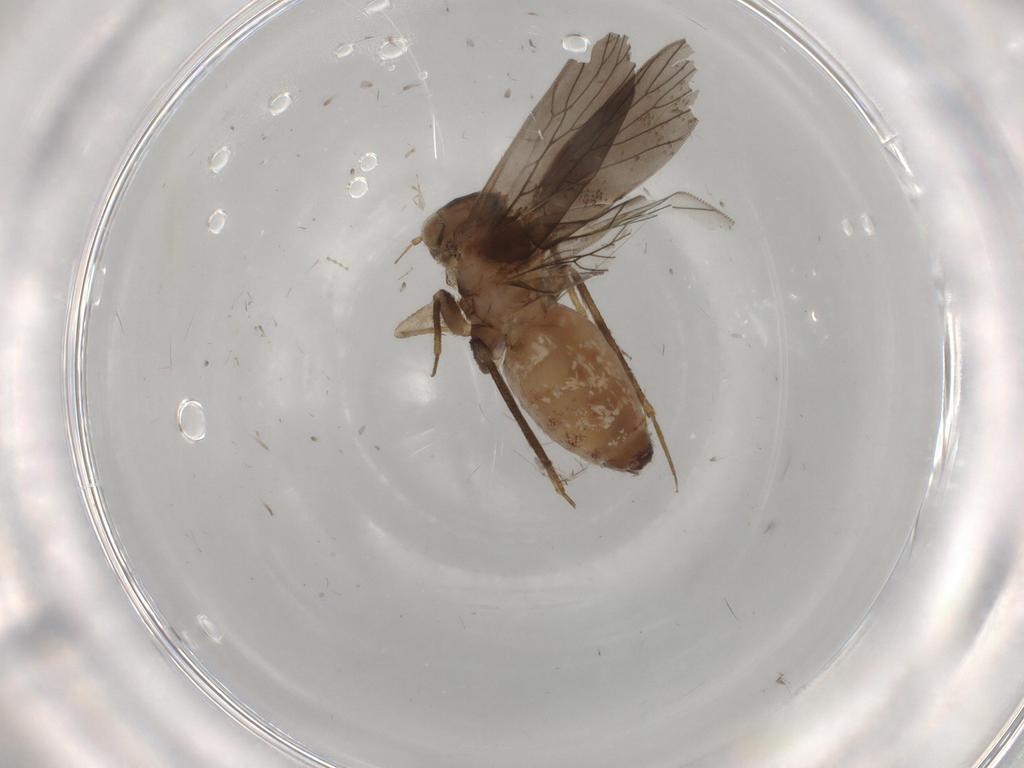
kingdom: Animalia
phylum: Arthropoda
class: Insecta
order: Psocodea
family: Lepidopsocidae
